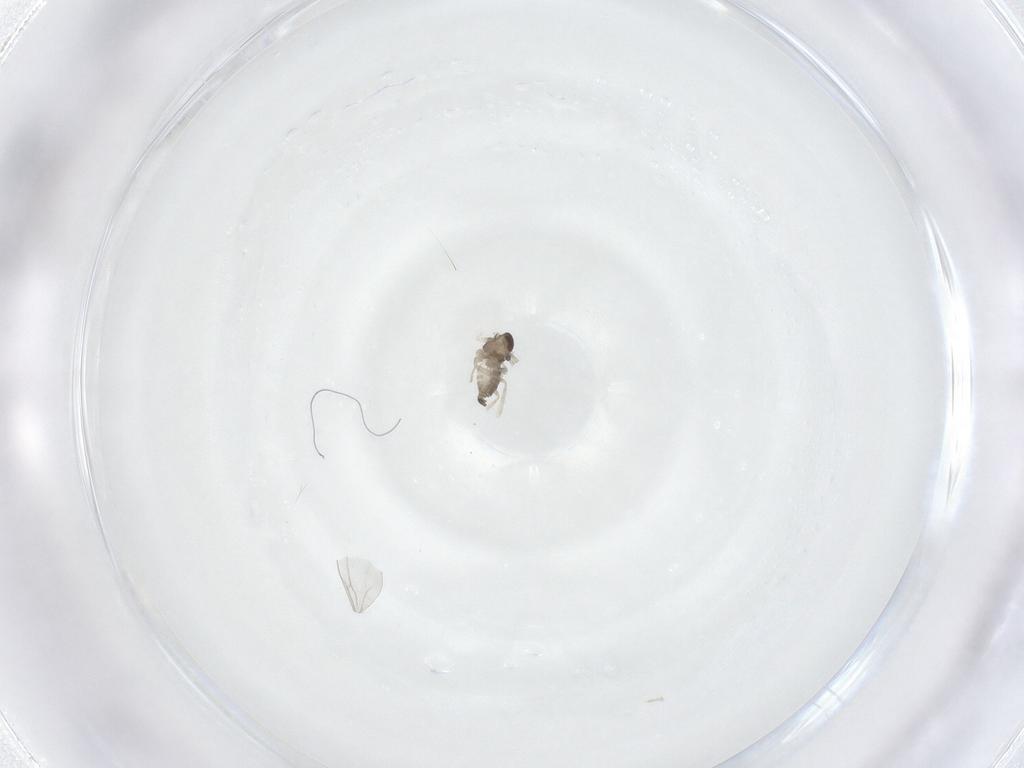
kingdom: Animalia
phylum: Arthropoda
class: Insecta
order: Diptera
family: Cecidomyiidae
